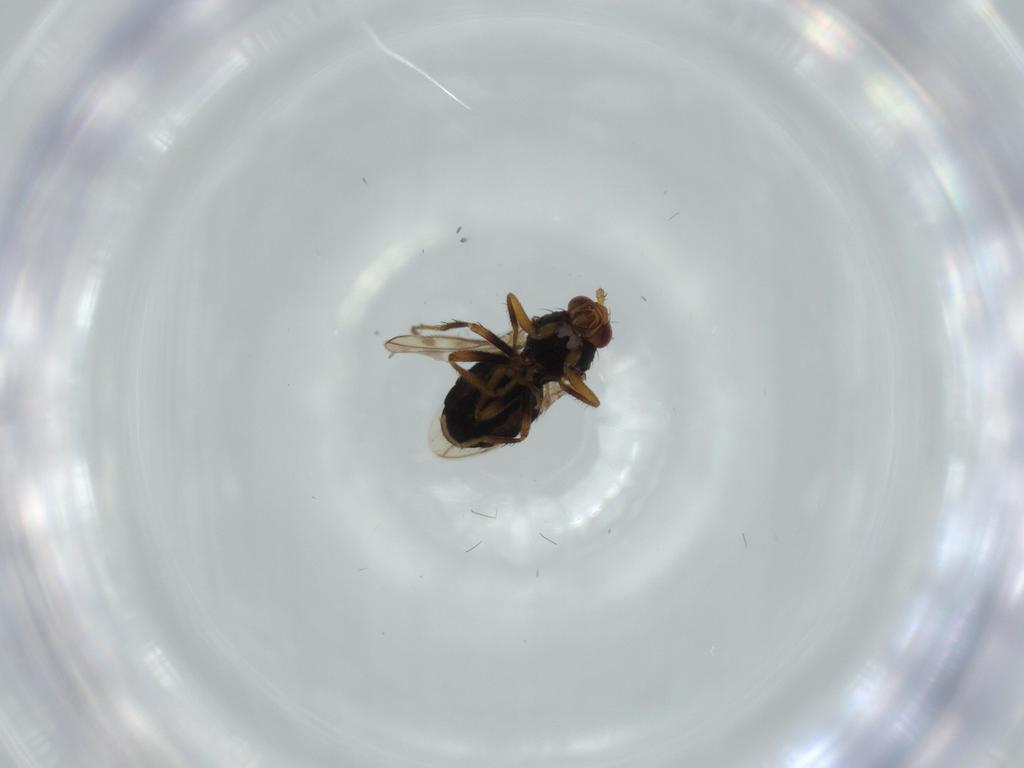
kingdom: Animalia
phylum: Arthropoda
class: Insecta
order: Diptera
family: Sphaeroceridae
